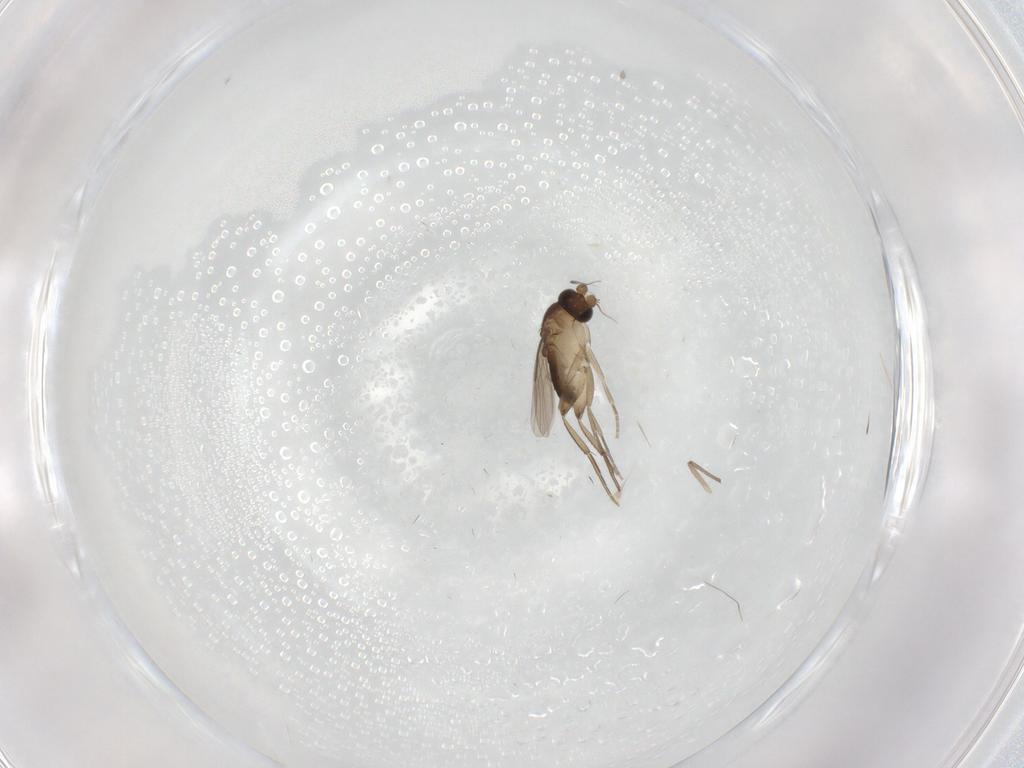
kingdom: Animalia
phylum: Arthropoda
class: Insecta
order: Diptera
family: Chironomidae
